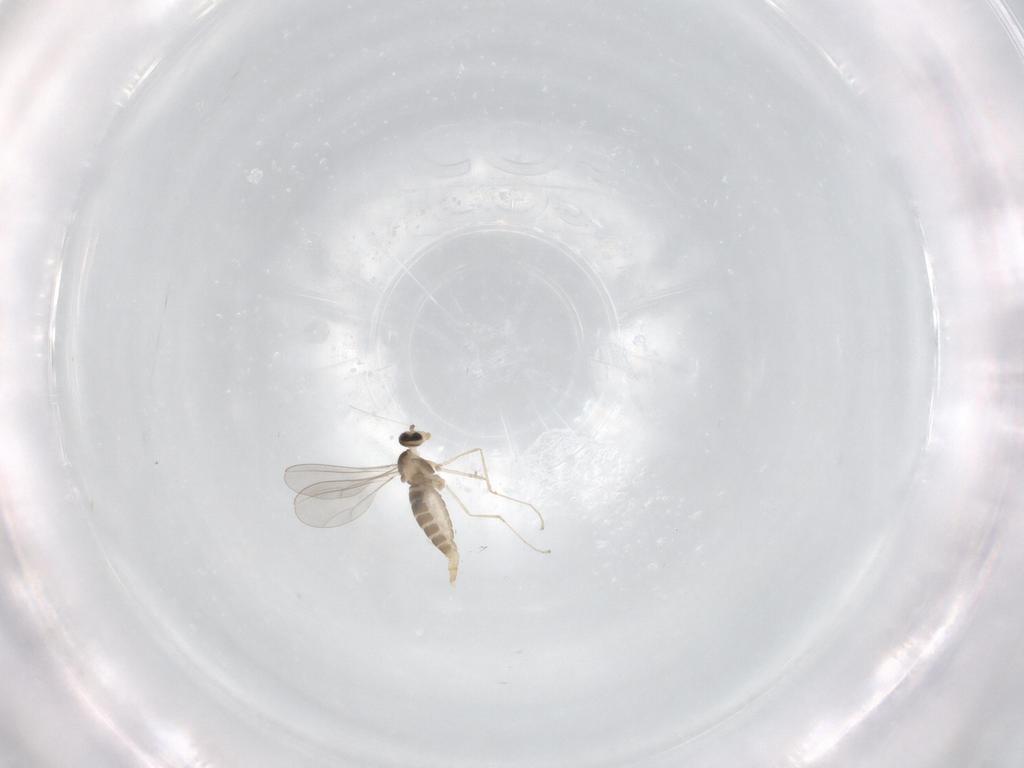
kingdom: Animalia
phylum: Arthropoda
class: Insecta
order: Diptera
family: Cecidomyiidae
